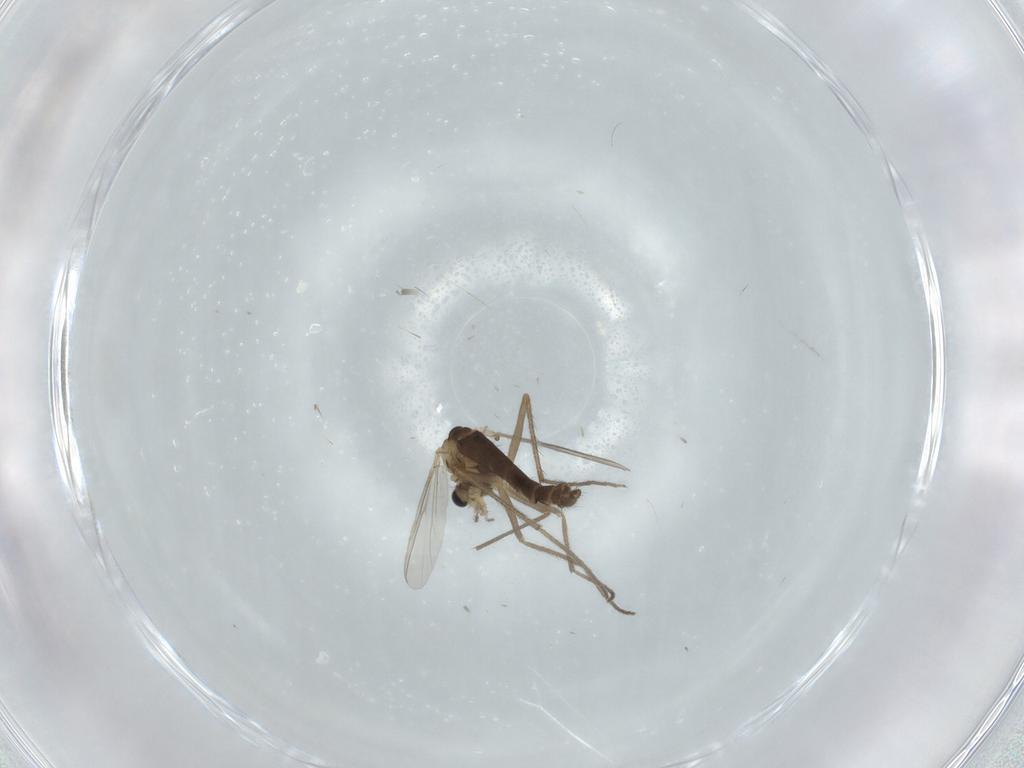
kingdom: Animalia
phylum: Arthropoda
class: Insecta
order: Diptera
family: Chironomidae
